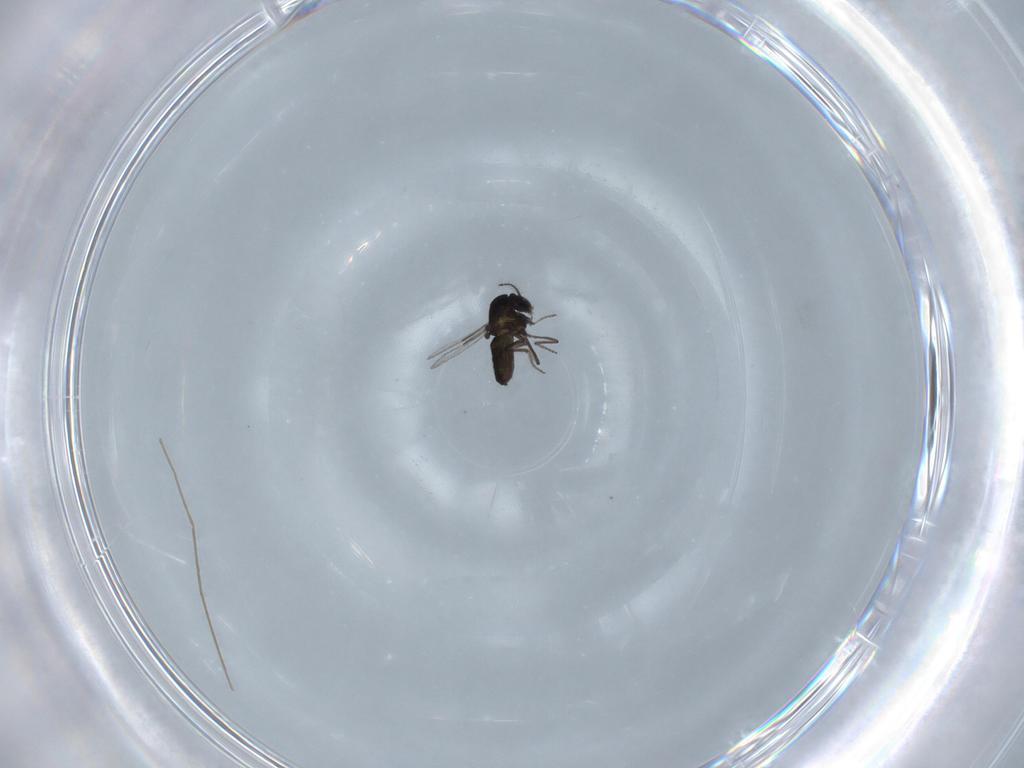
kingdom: Animalia
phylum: Arthropoda
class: Insecta
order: Diptera
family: Ceratopogonidae
